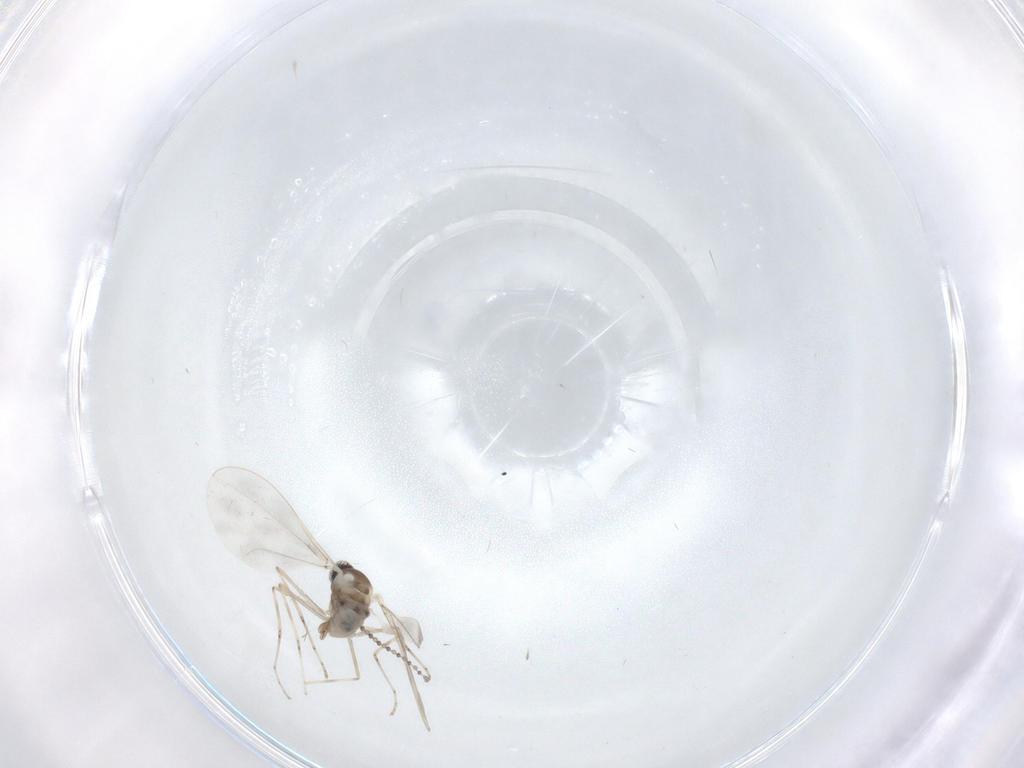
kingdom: Animalia
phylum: Arthropoda
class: Insecta
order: Diptera
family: Cecidomyiidae
